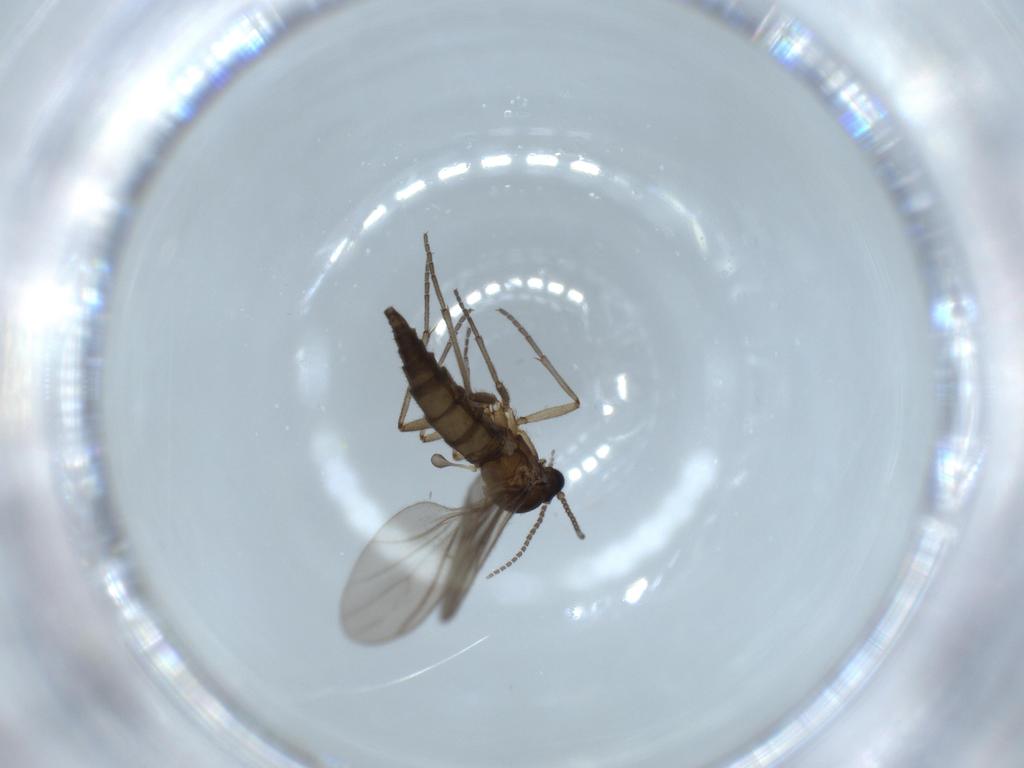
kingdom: Animalia
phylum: Arthropoda
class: Insecta
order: Diptera
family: Sciaridae
